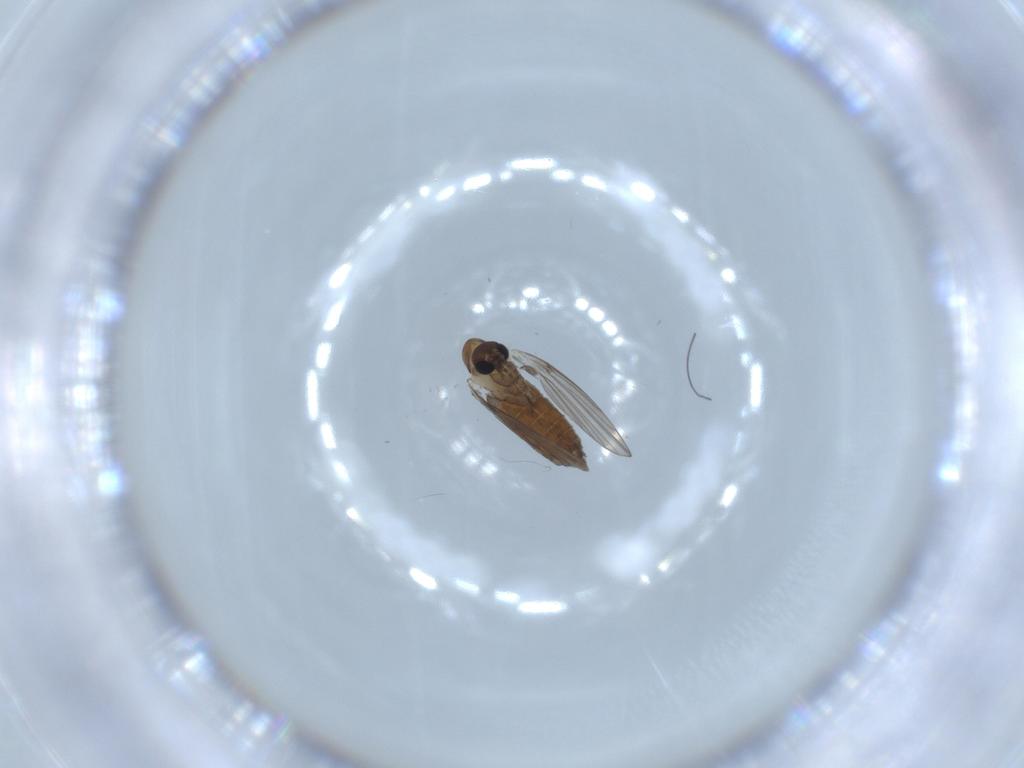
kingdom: Animalia
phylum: Arthropoda
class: Insecta
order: Diptera
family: Psychodidae
